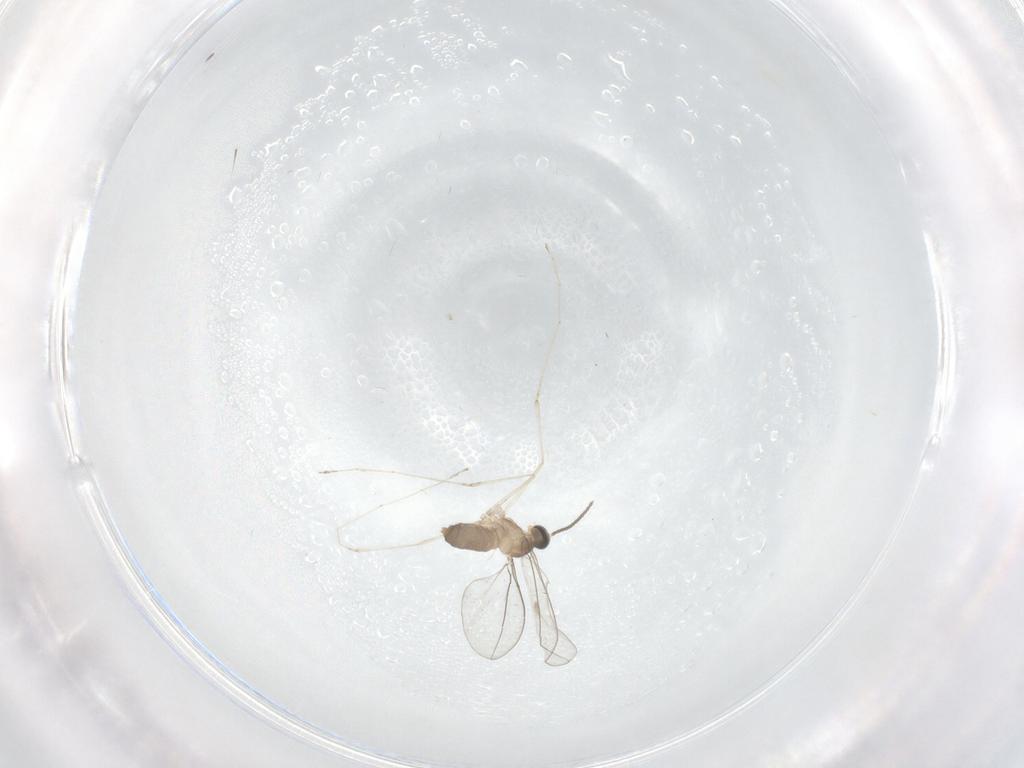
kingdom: Animalia
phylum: Arthropoda
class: Insecta
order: Diptera
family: Cecidomyiidae
